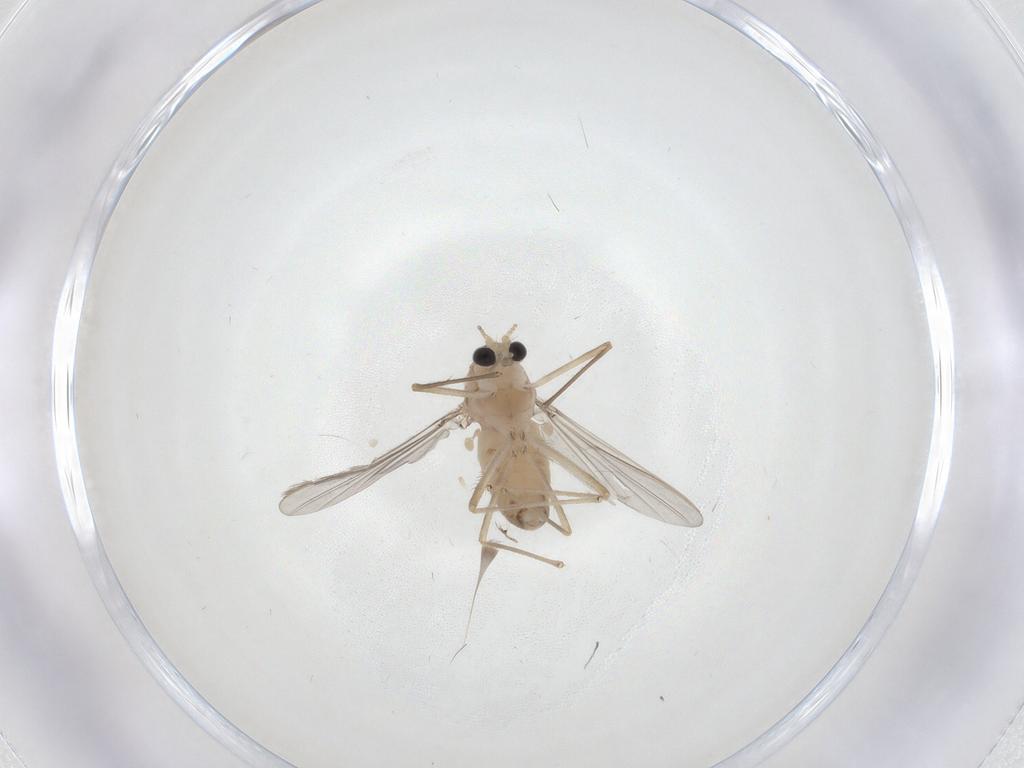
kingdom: Animalia
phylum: Arthropoda
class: Insecta
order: Diptera
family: Chironomidae
